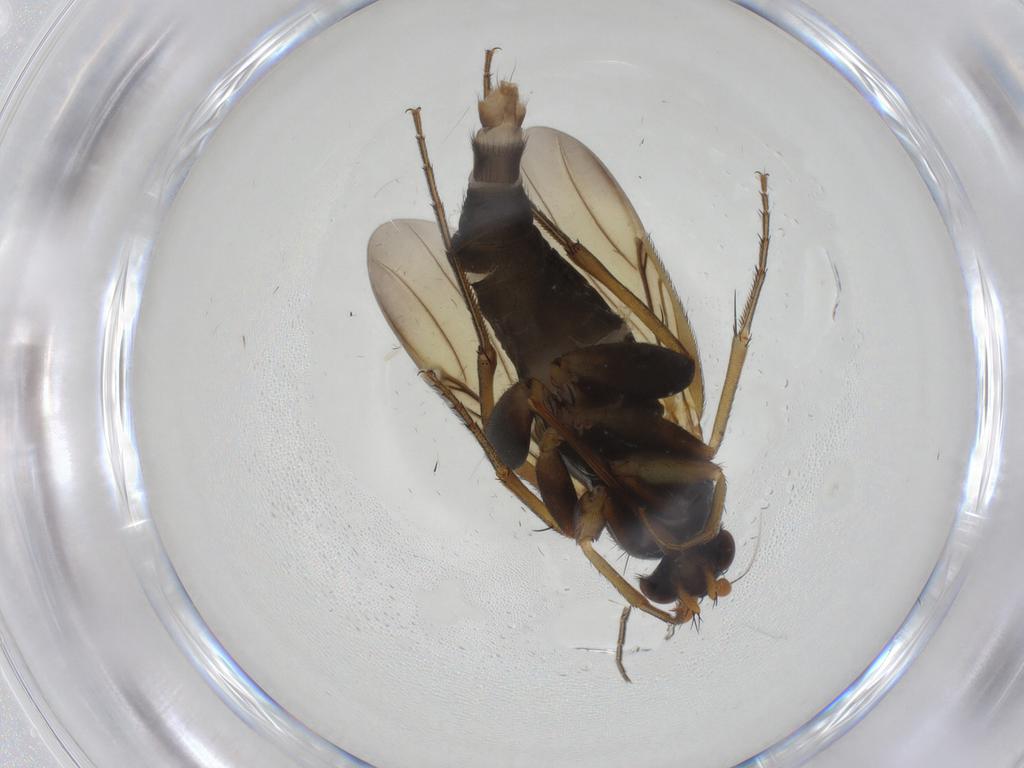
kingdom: Animalia
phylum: Arthropoda
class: Insecta
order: Diptera
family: Phoridae
